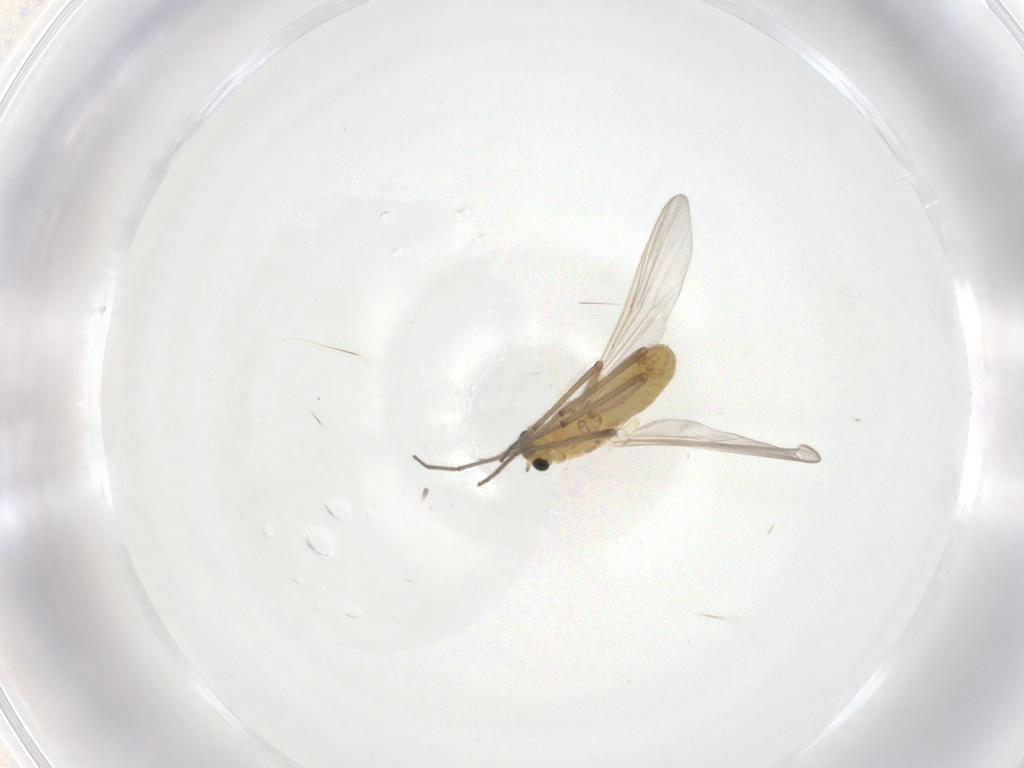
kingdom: Animalia
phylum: Arthropoda
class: Insecta
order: Diptera
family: Chironomidae
